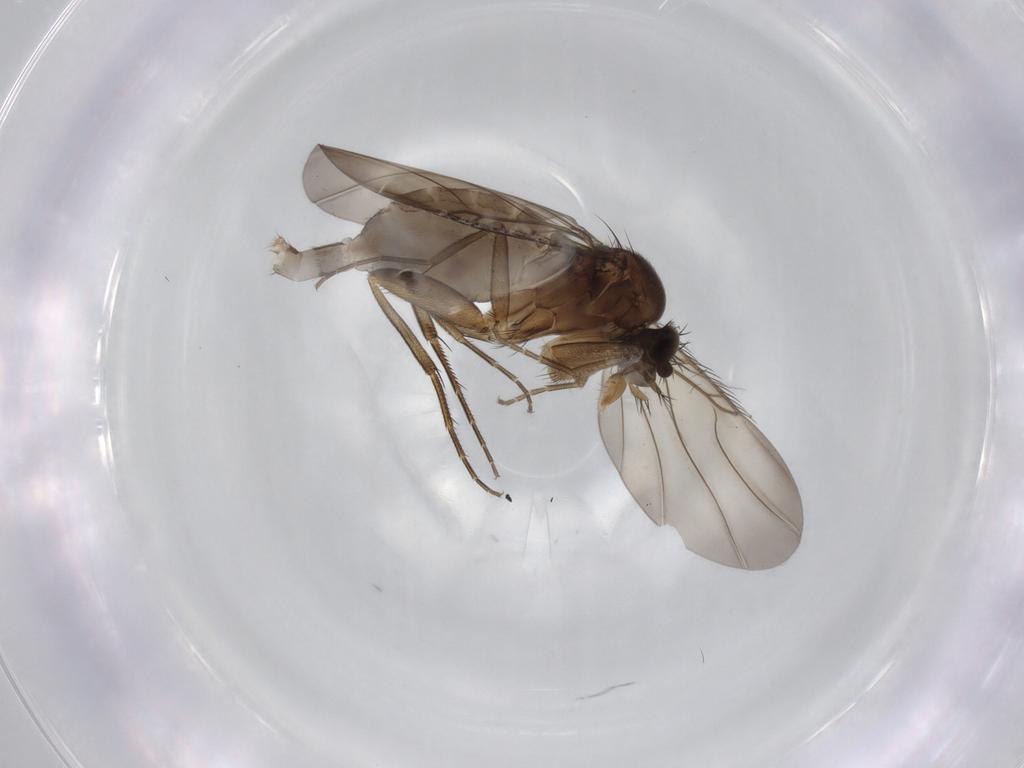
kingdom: Animalia
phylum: Arthropoda
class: Insecta
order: Diptera
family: Phoridae
